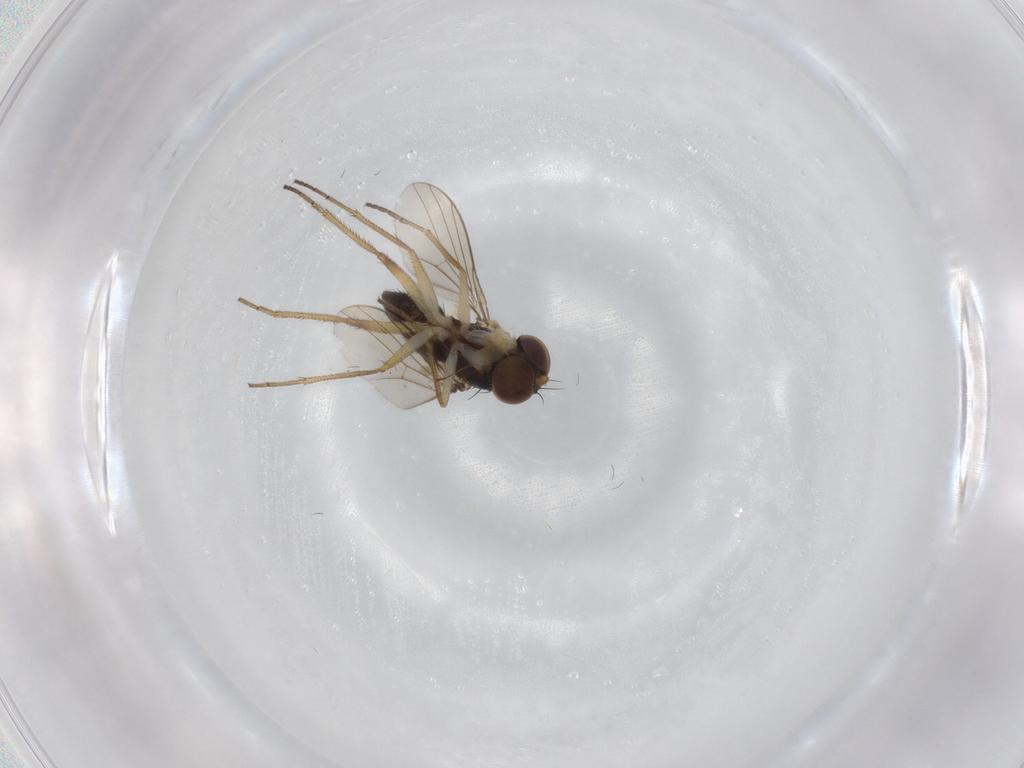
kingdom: Animalia
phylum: Arthropoda
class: Insecta
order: Diptera
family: Dolichopodidae
